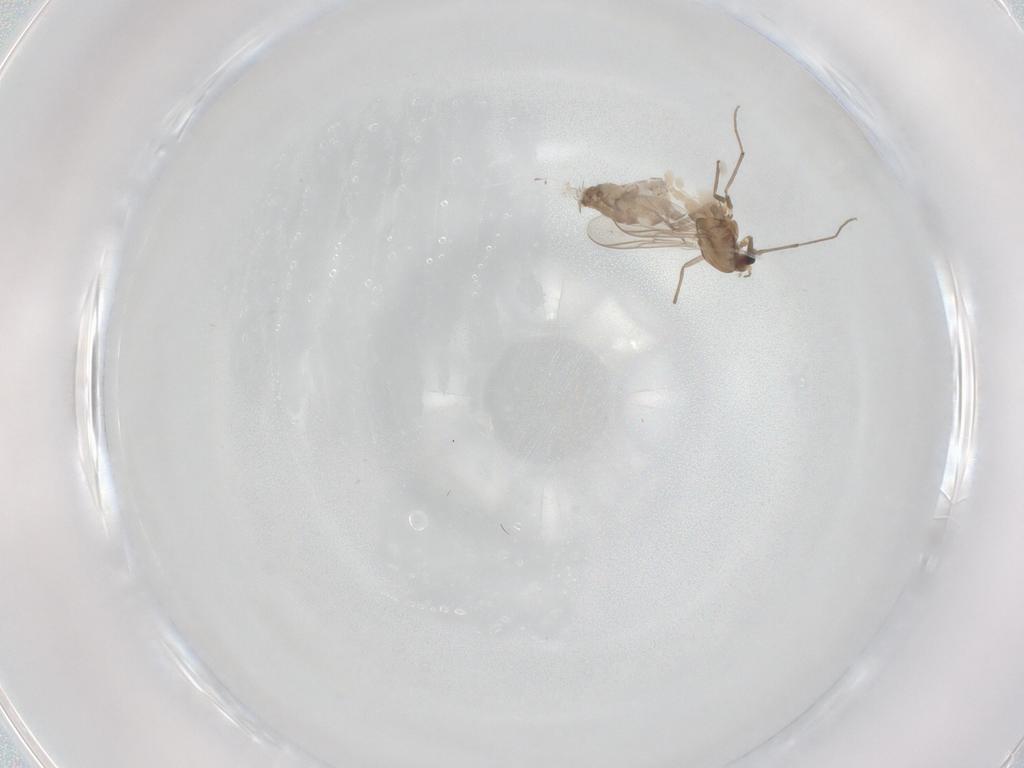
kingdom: Animalia
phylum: Arthropoda
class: Insecta
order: Diptera
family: Chironomidae
